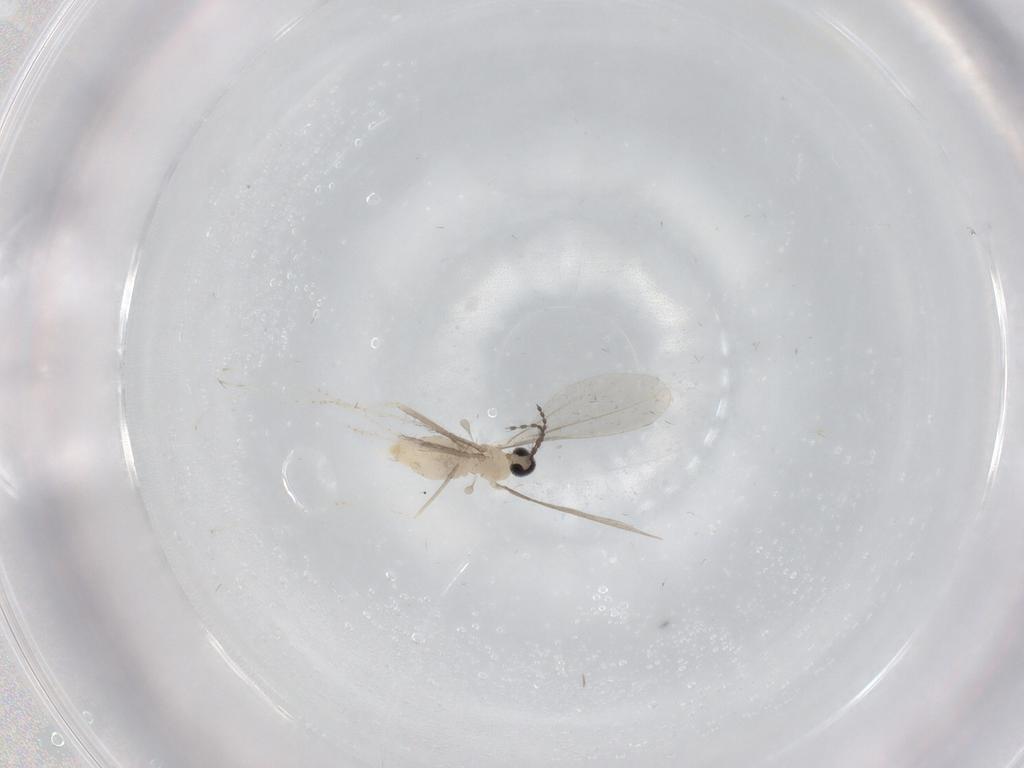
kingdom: Animalia
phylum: Arthropoda
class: Insecta
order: Diptera
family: Cecidomyiidae
